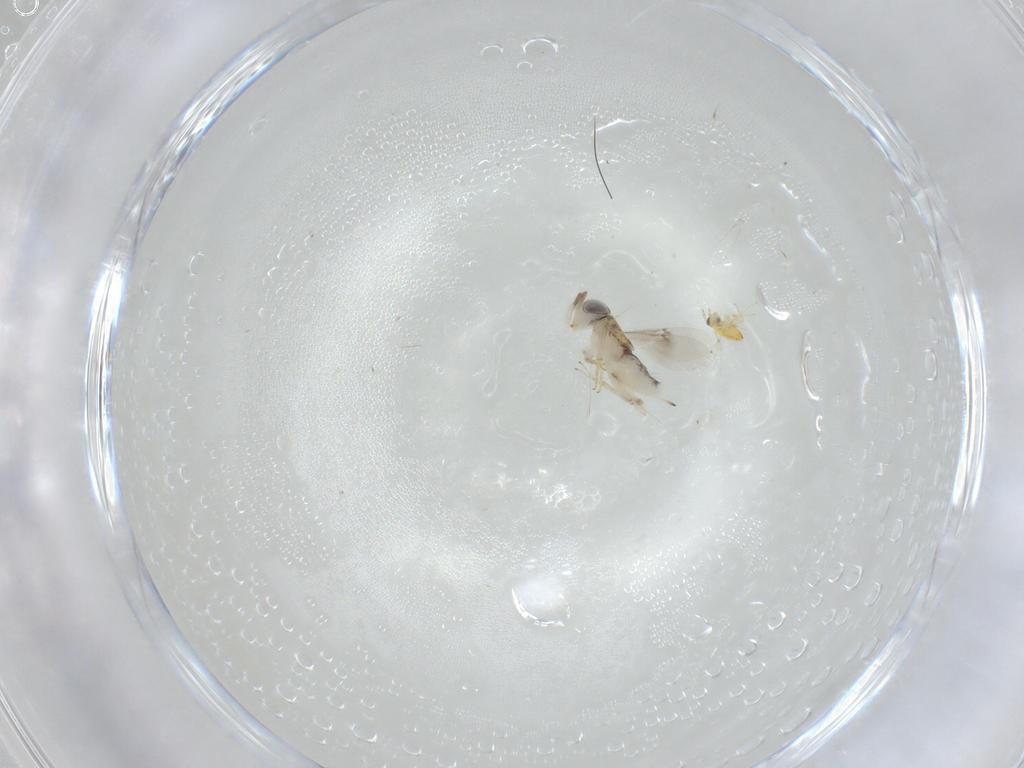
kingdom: Animalia
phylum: Arthropoda
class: Insecta
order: Hymenoptera
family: Encyrtidae
